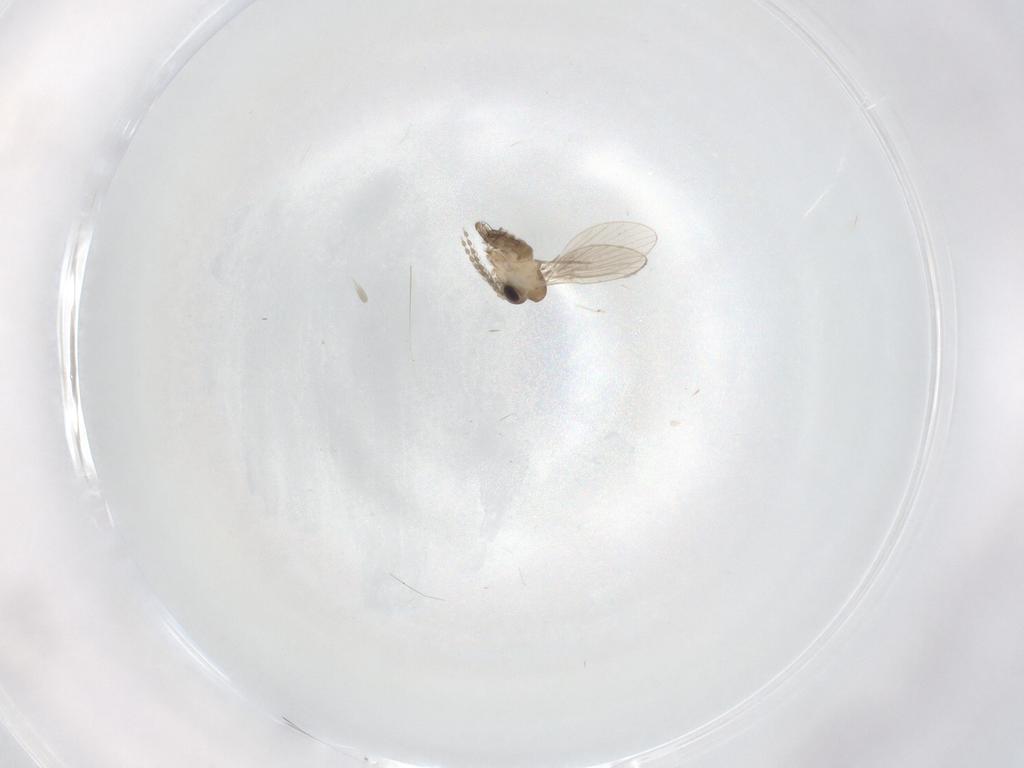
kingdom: Animalia
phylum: Arthropoda
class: Insecta
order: Diptera
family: Psychodidae
